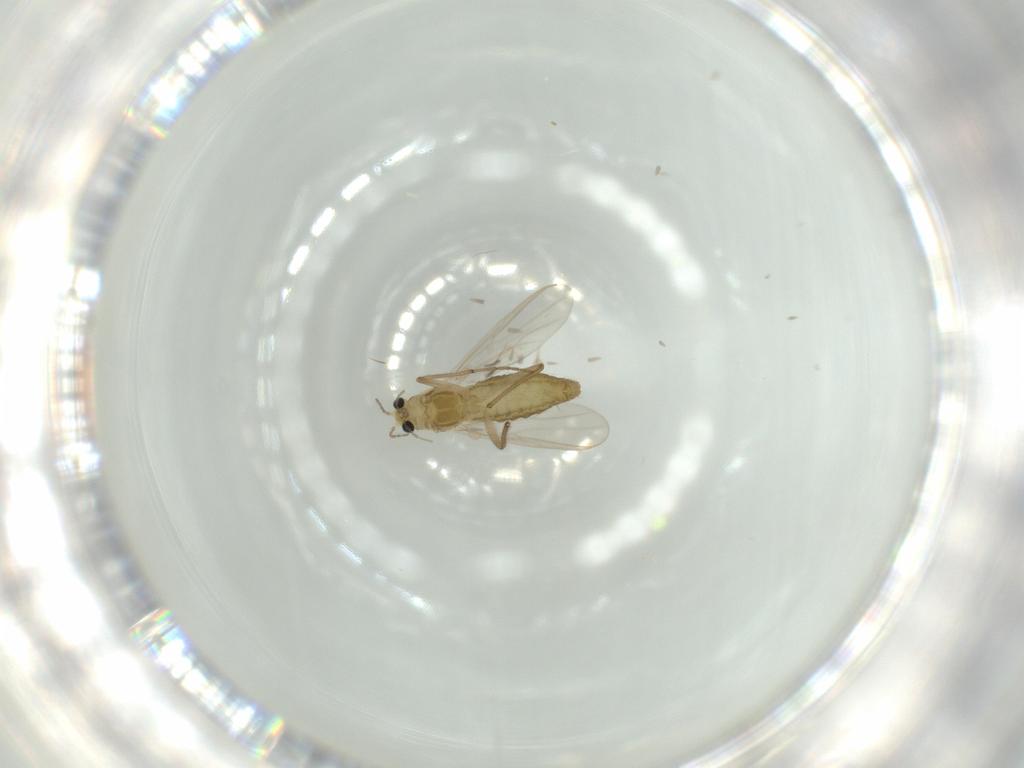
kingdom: Animalia
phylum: Arthropoda
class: Insecta
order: Diptera
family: Chironomidae
